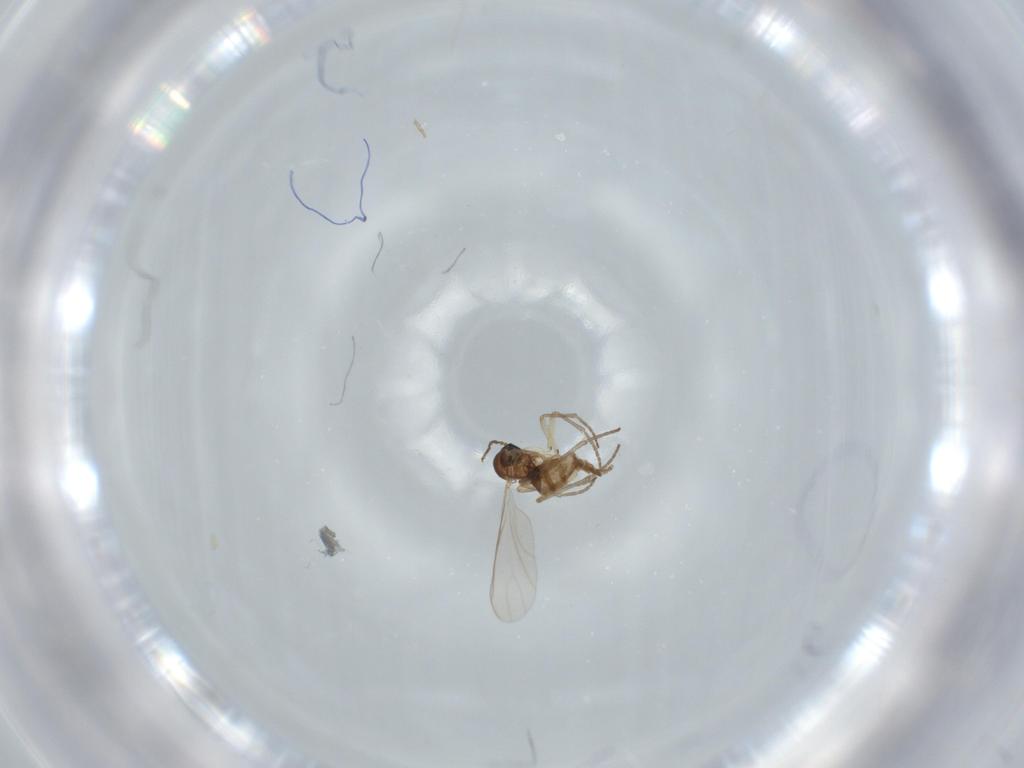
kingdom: Animalia
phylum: Arthropoda
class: Insecta
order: Diptera
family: Sciaridae
